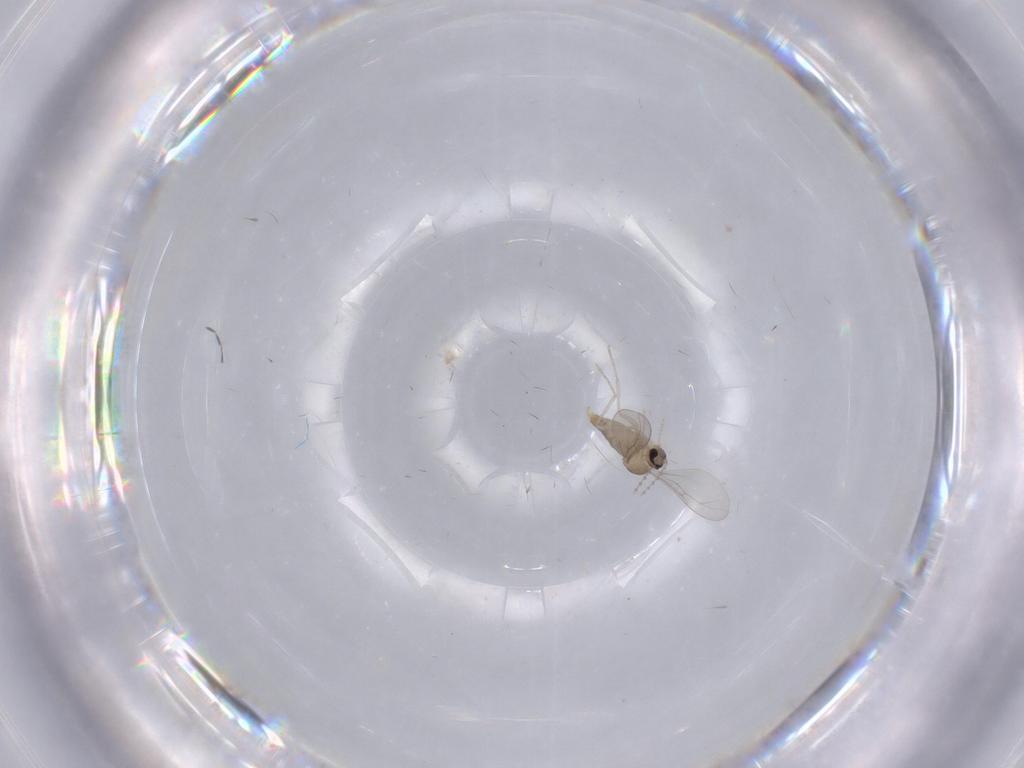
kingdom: Animalia
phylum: Arthropoda
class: Insecta
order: Diptera
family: Cecidomyiidae
